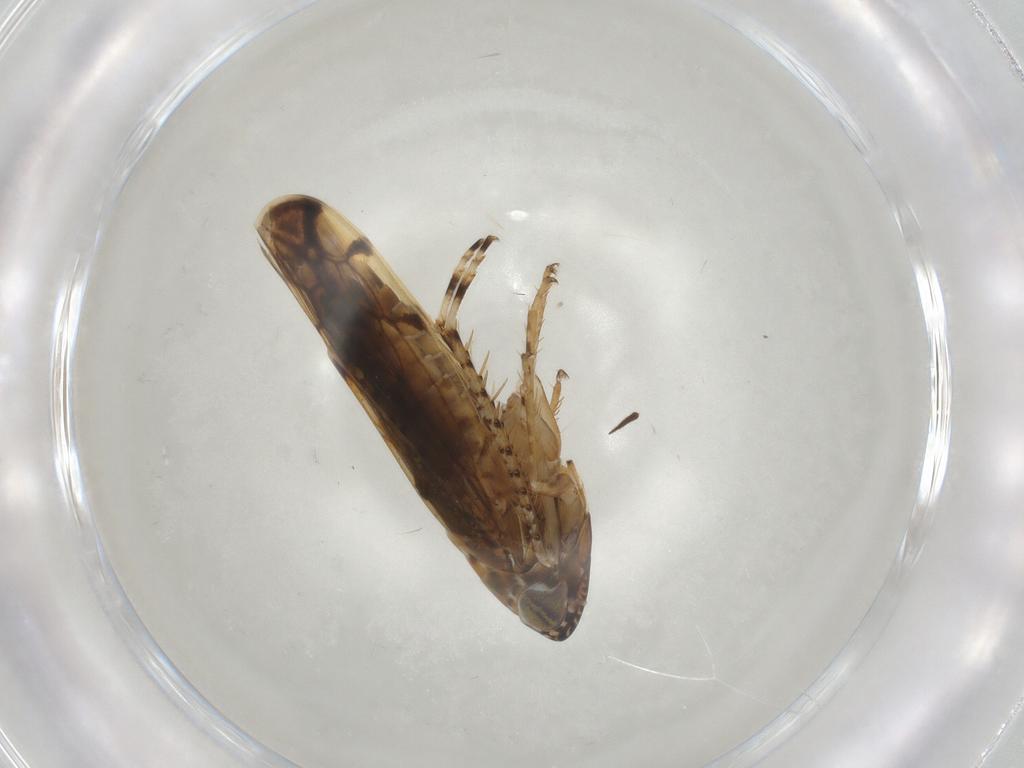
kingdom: Animalia
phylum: Arthropoda
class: Insecta
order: Hemiptera
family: Cicadellidae
